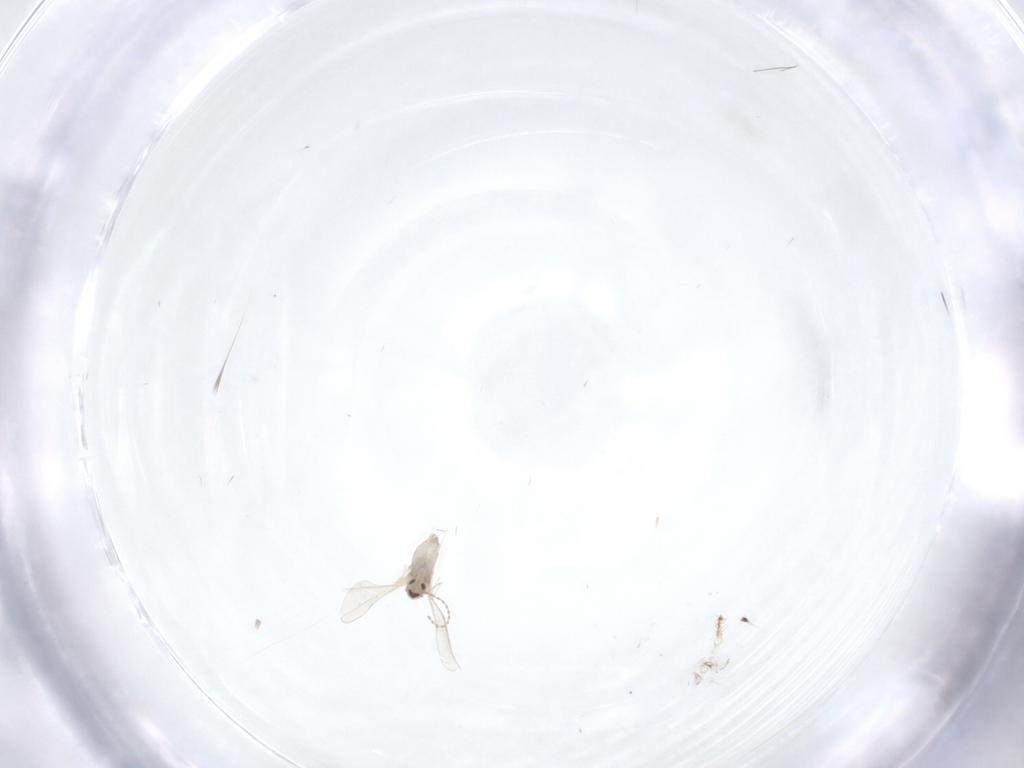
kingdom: Animalia
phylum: Arthropoda
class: Insecta
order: Diptera
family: Cecidomyiidae
